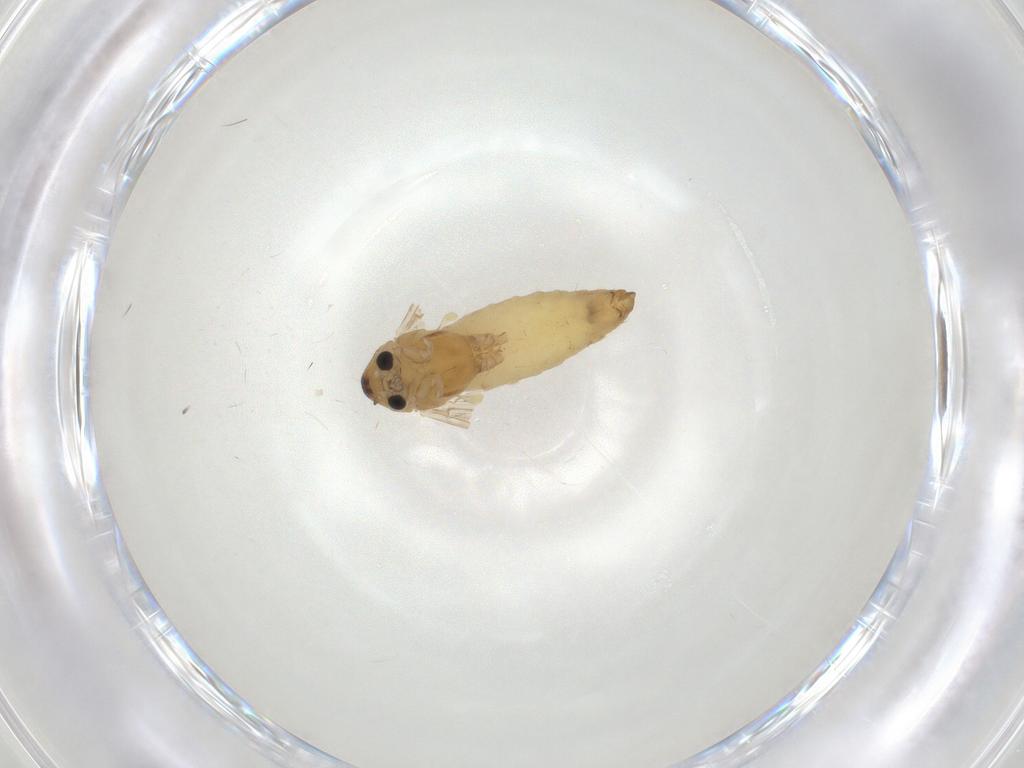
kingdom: Animalia
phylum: Arthropoda
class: Insecta
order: Diptera
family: Chironomidae
